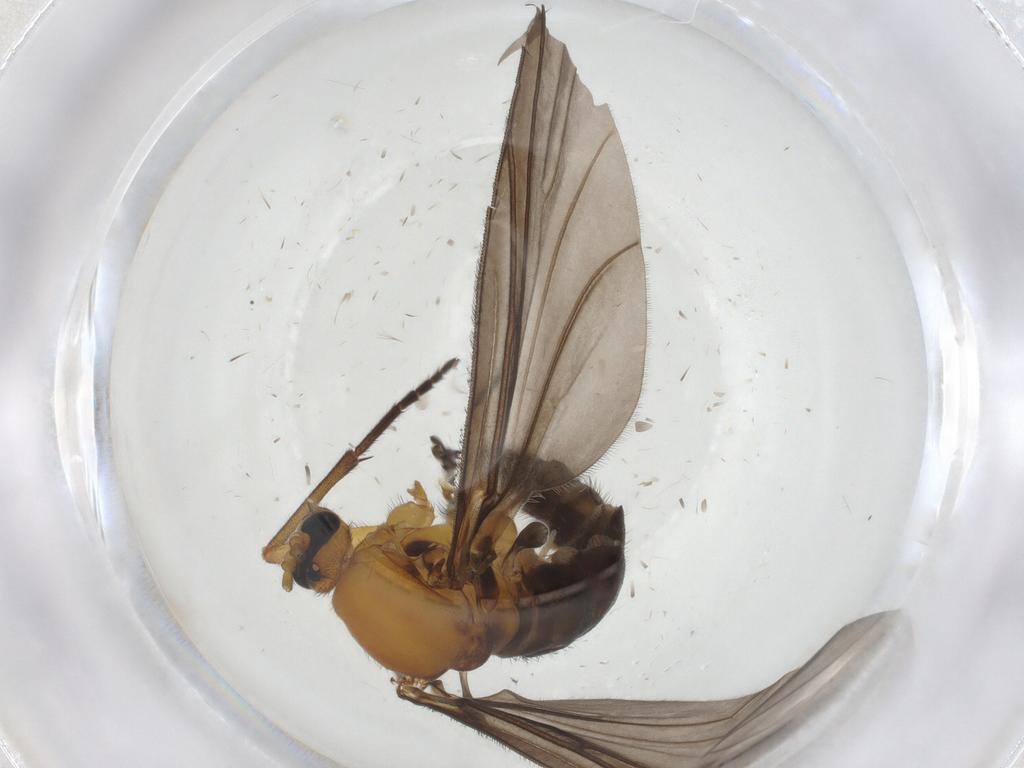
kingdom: Animalia
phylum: Arthropoda
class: Insecta
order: Diptera
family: Sciaridae
